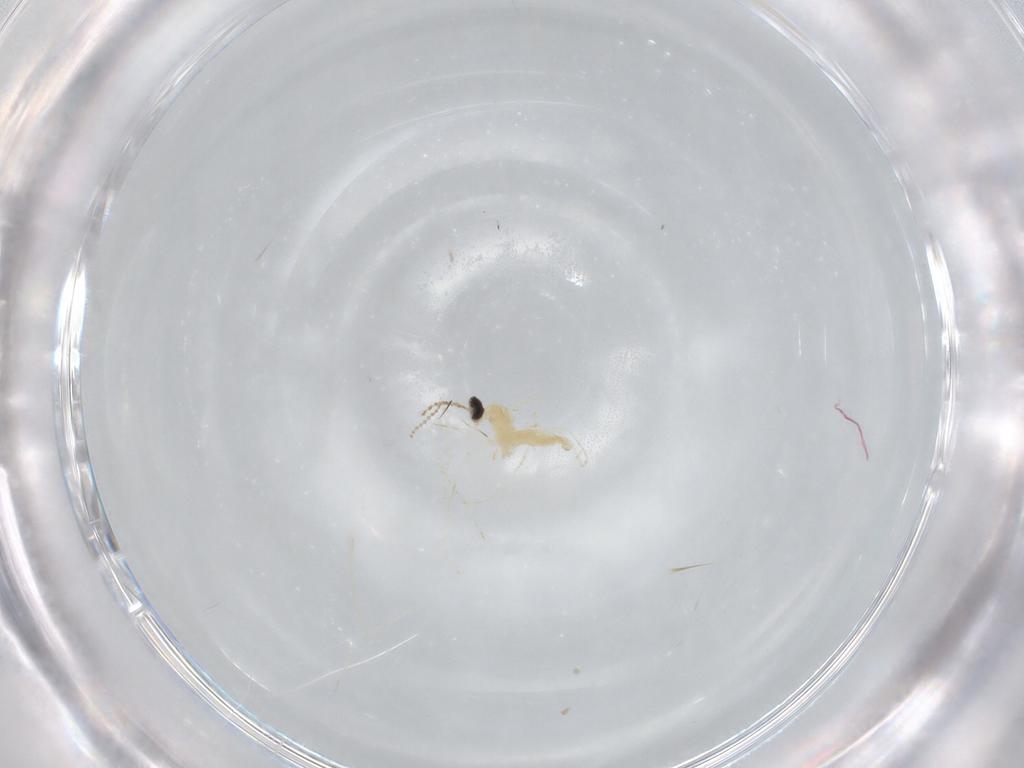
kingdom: Animalia
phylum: Arthropoda
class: Insecta
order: Diptera
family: Cecidomyiidae
